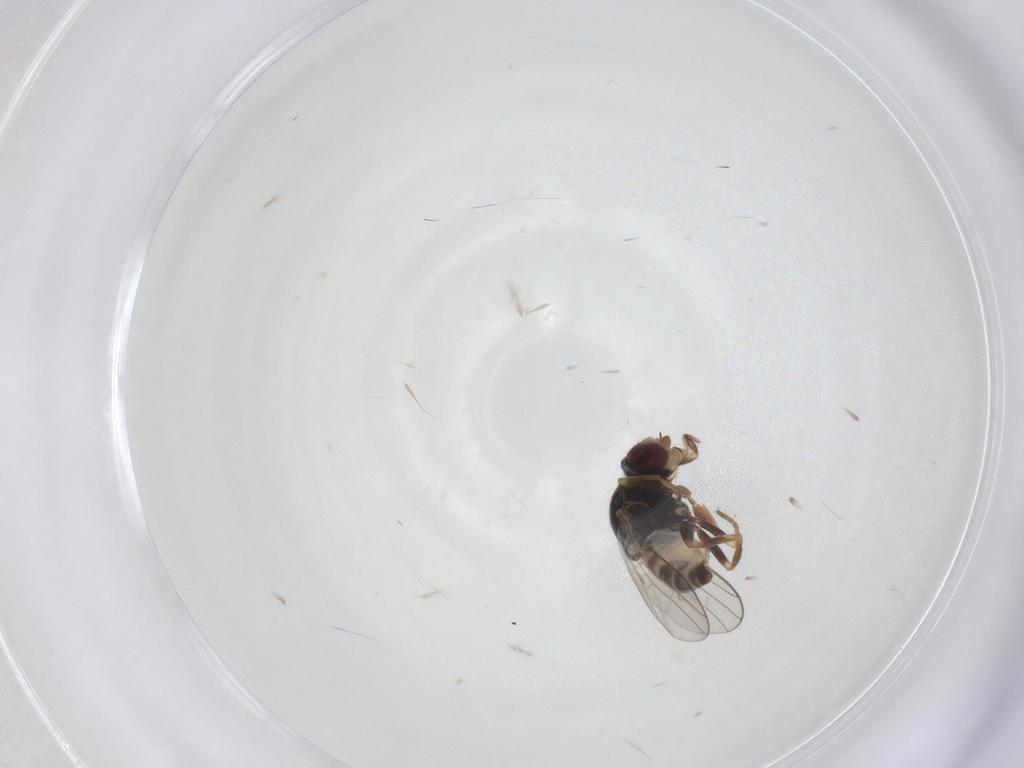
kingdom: Animalia
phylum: Arthropoda
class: Insecta
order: Diptera
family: Chloropidae
